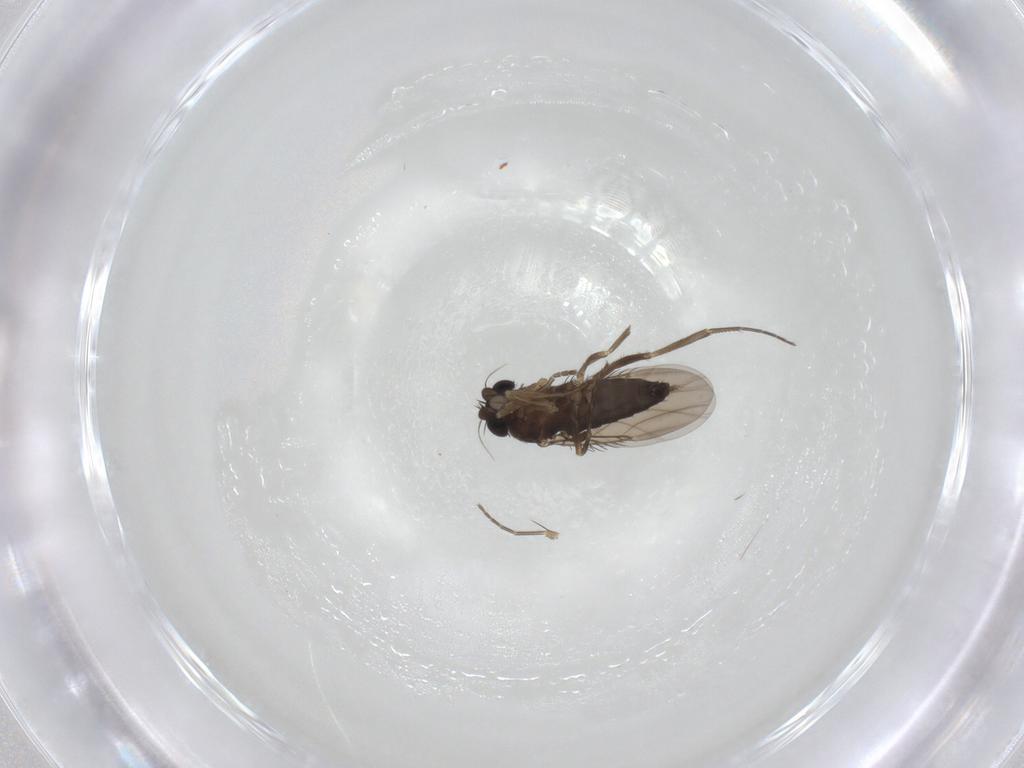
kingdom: Animalia
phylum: Arthropoda
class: Insecta
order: Diptera
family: Phoridae
